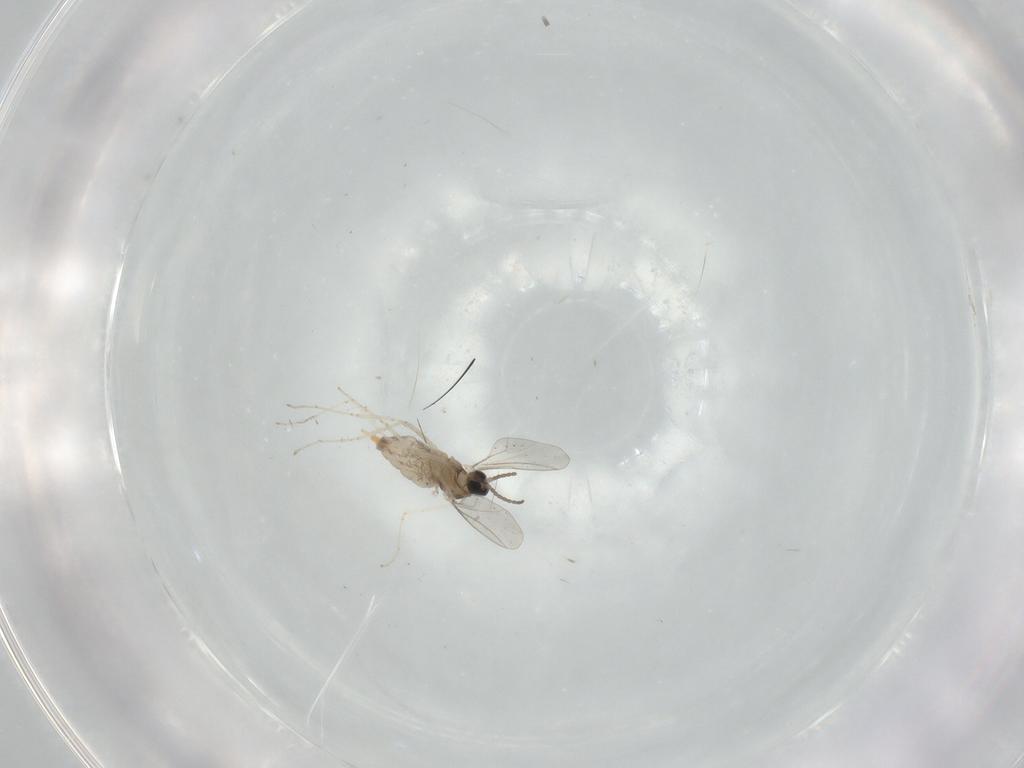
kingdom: Animalia
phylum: Arthropoda
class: Insecta
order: Diptera
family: Cecidomyiidae
